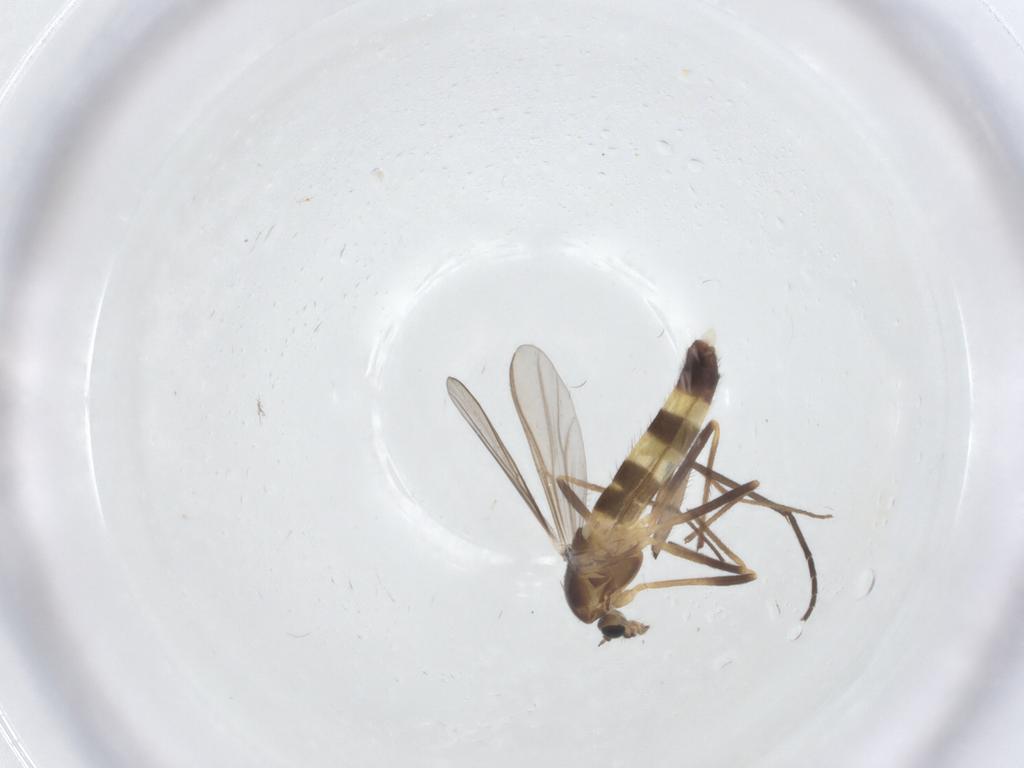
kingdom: Animalia
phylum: Arthropoda
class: Insecta
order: Diptera
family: Chironomidae
